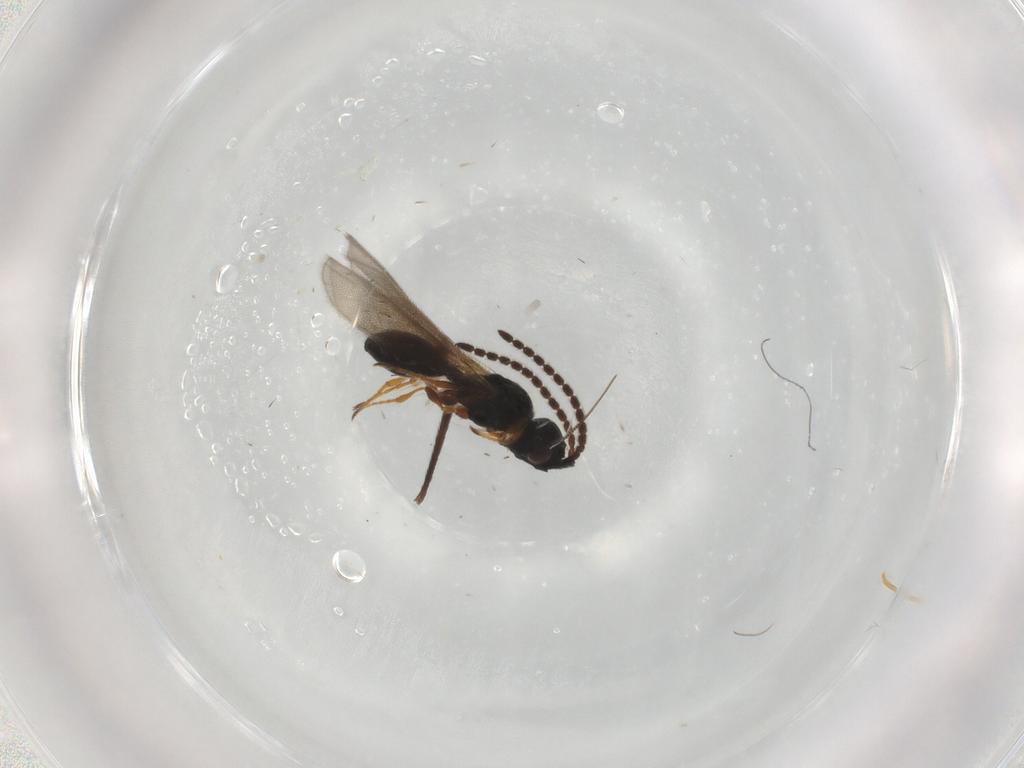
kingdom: Animalia
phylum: Arthropoda
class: Insecta
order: Hymenoptera
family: Diapriidae
